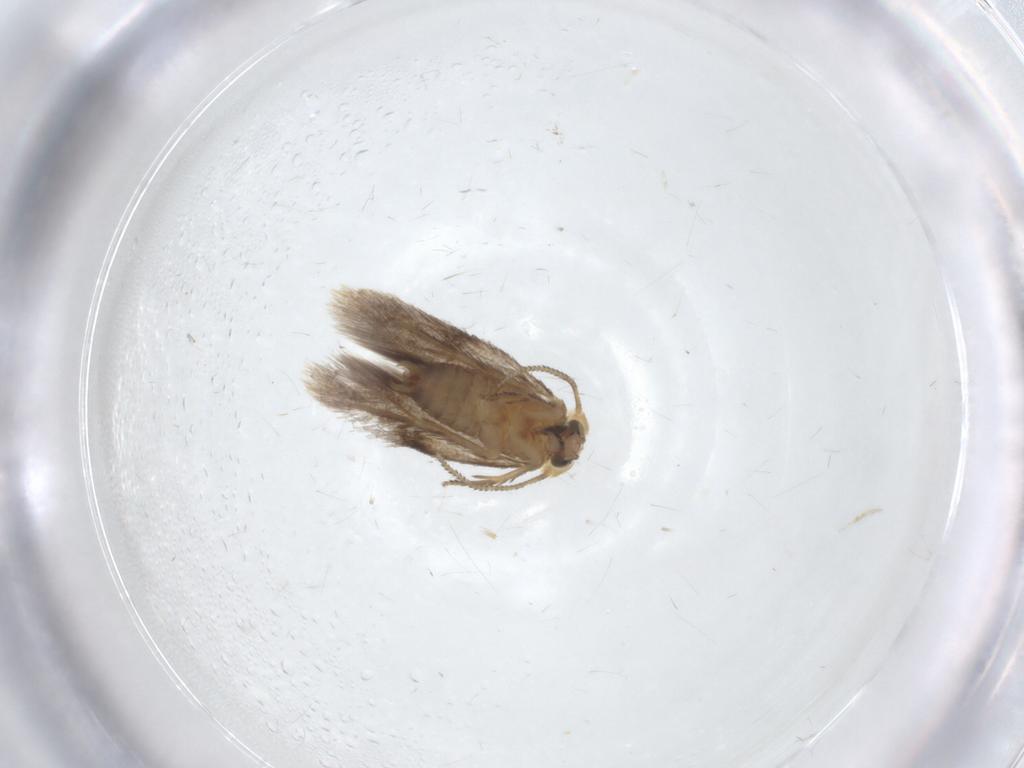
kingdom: Animalia
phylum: Arthropoda
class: Insecta
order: Lepidoptera
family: Nepticulidae
